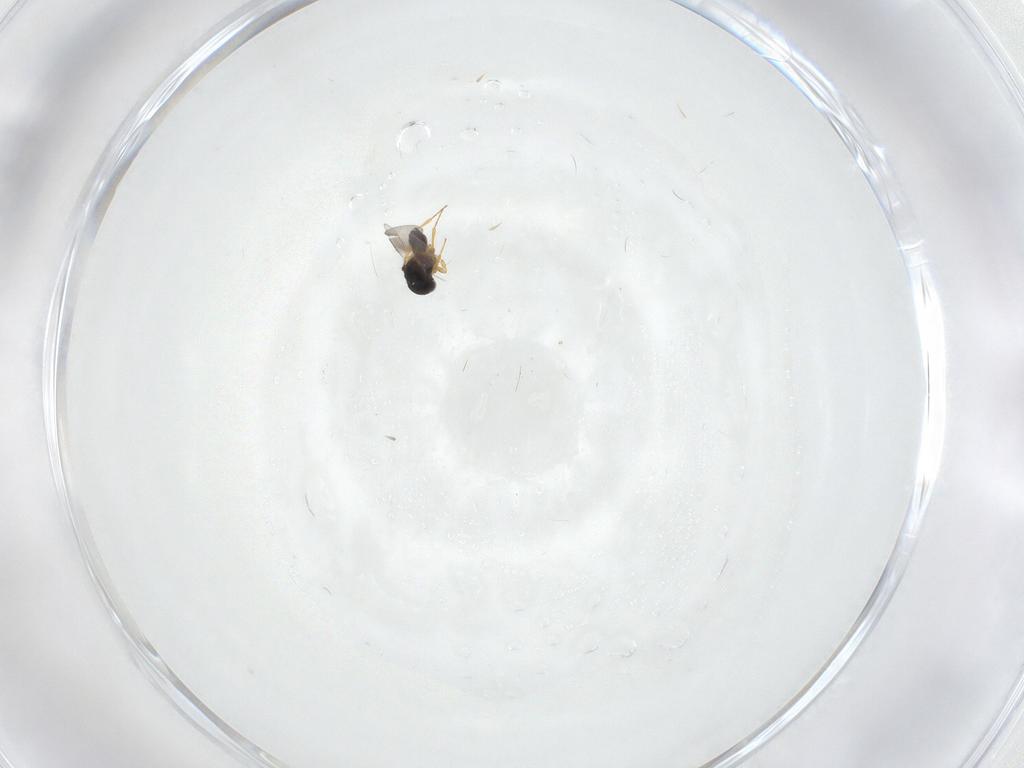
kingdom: Animalia
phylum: Arthropoda
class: Insecta
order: Hymenoptera
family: Platygastridae
